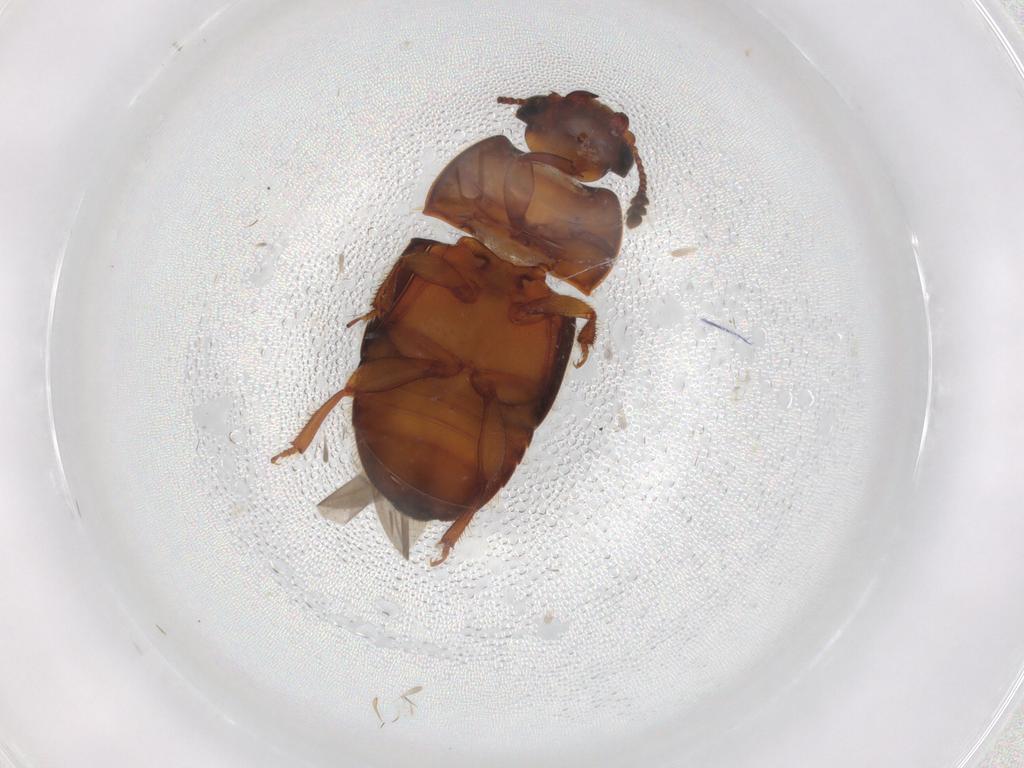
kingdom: Animalia
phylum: Arthropoda
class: Insecta
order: Coleoptera
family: Nitidulidae
